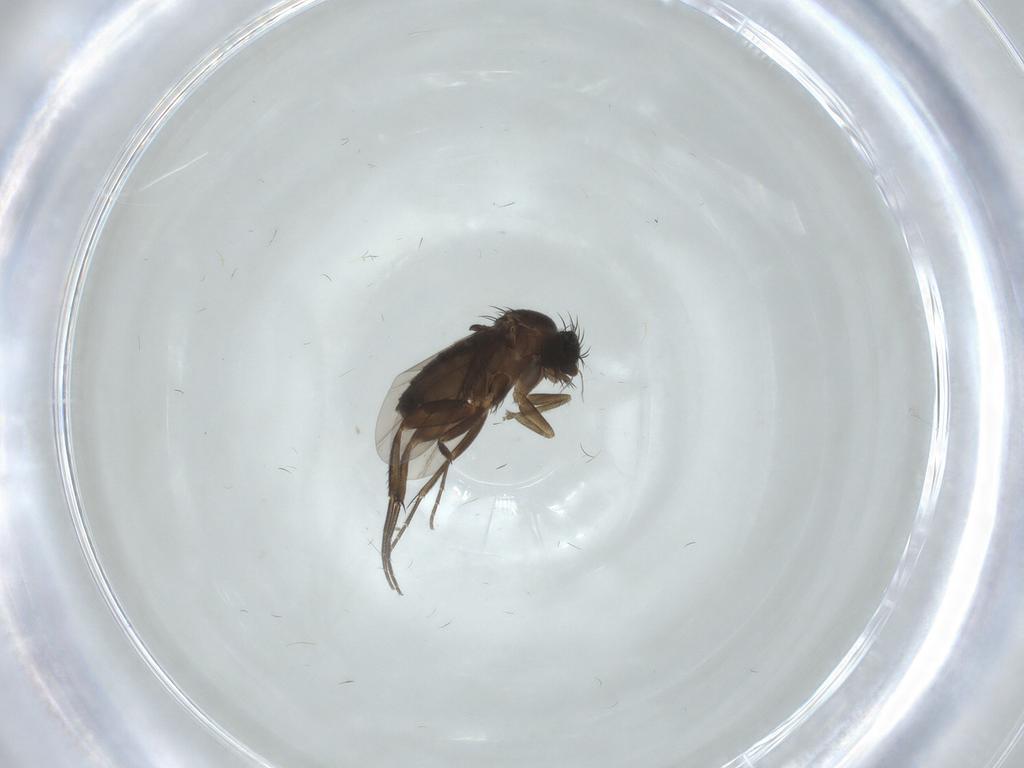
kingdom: Animalia
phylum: Arthropoda
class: Insecta
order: Diptera
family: Phoridae
